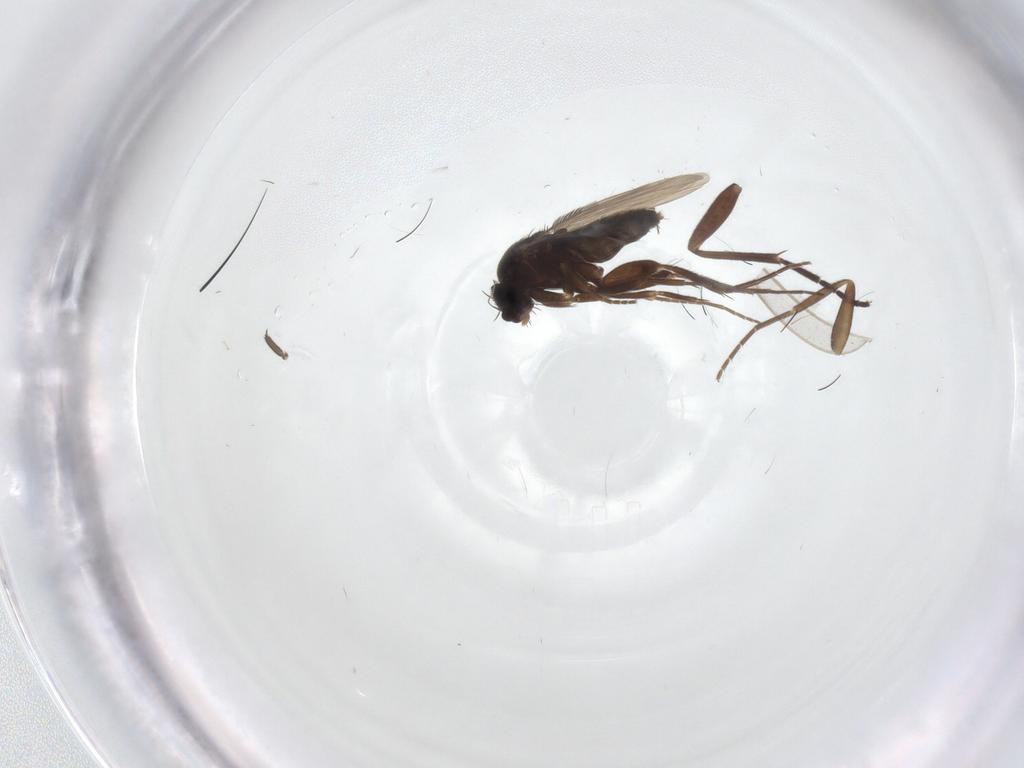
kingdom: Animalia
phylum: Arthropoda
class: Insecta
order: Diptera
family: Sciaridae
